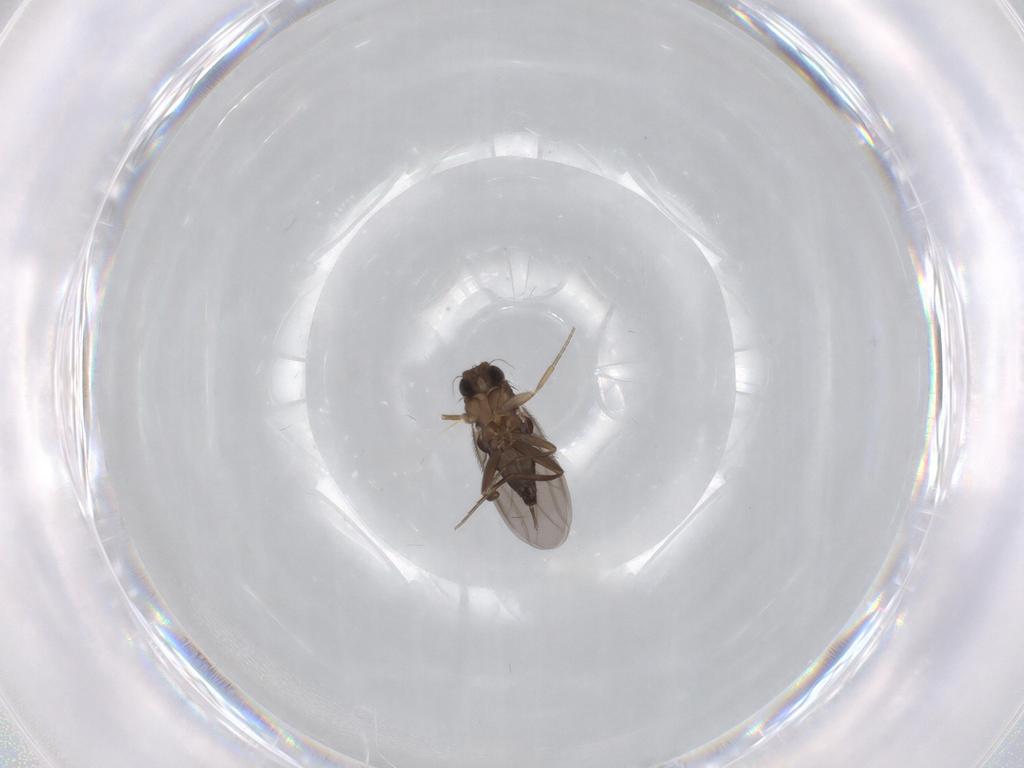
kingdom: Animalia
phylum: Arthropoda
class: Insecta
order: Diptera
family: Phoridae
